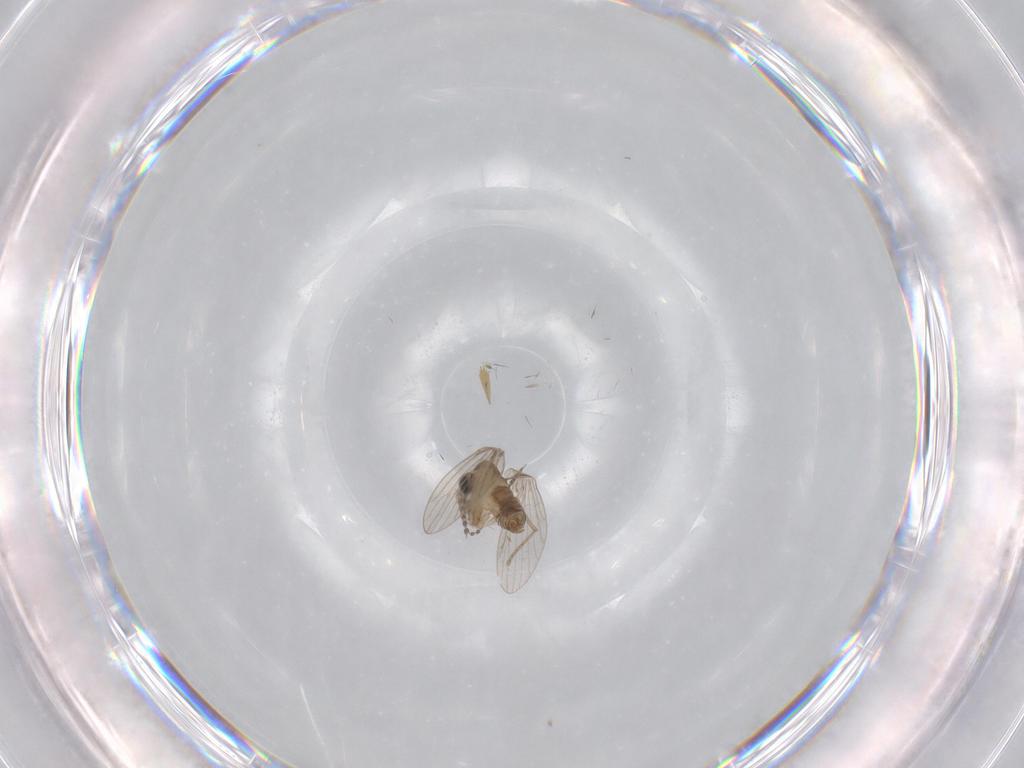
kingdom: Animalia
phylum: Arthropoda
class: Insecta
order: Diptera
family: Psychodidae
